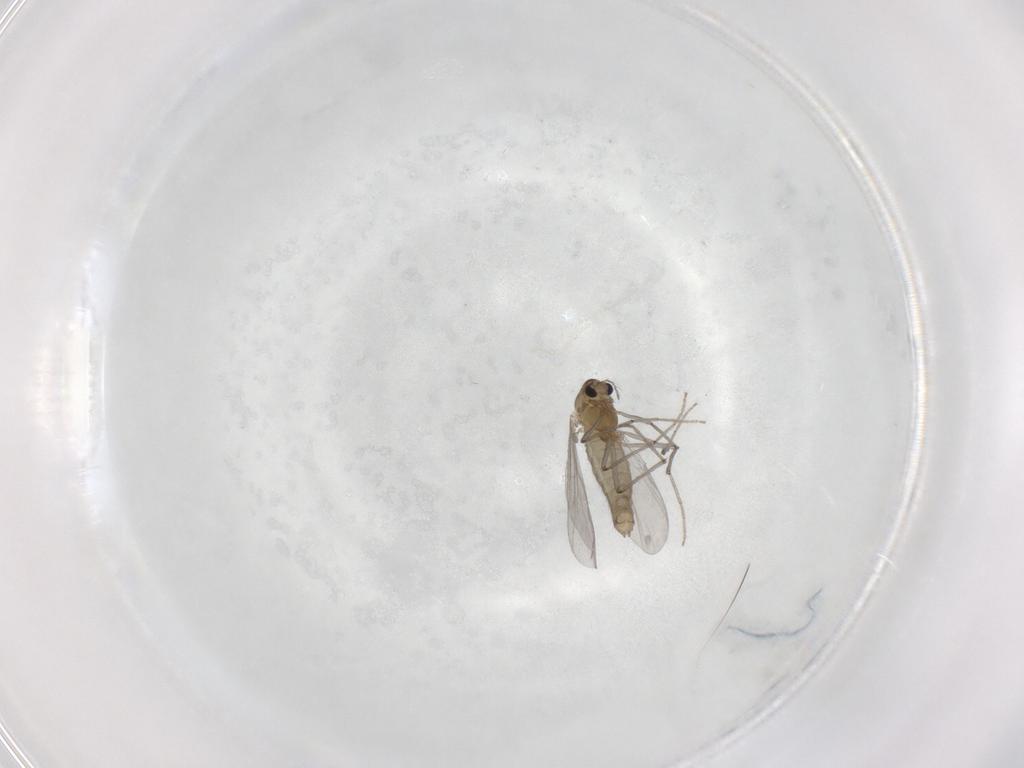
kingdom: Animalia
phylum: Arthropoda
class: Insecta
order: Diptera
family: Chironomidae
